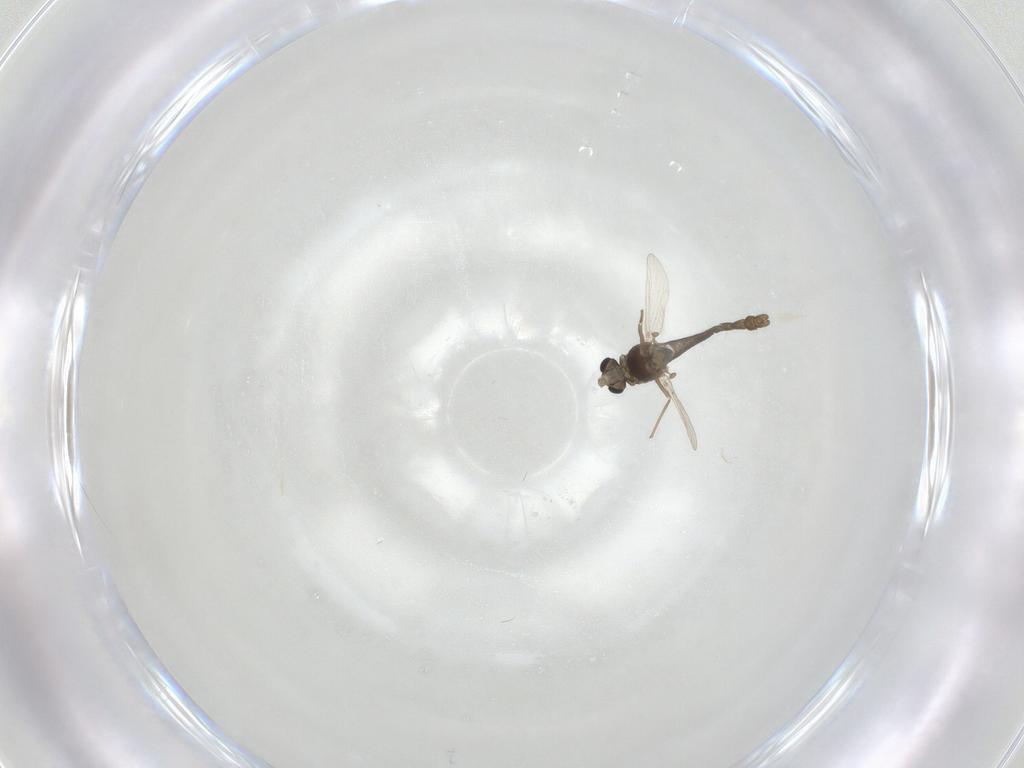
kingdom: Animalia
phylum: Arthropoda
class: Insecta
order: Diptera
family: Chironomidae
